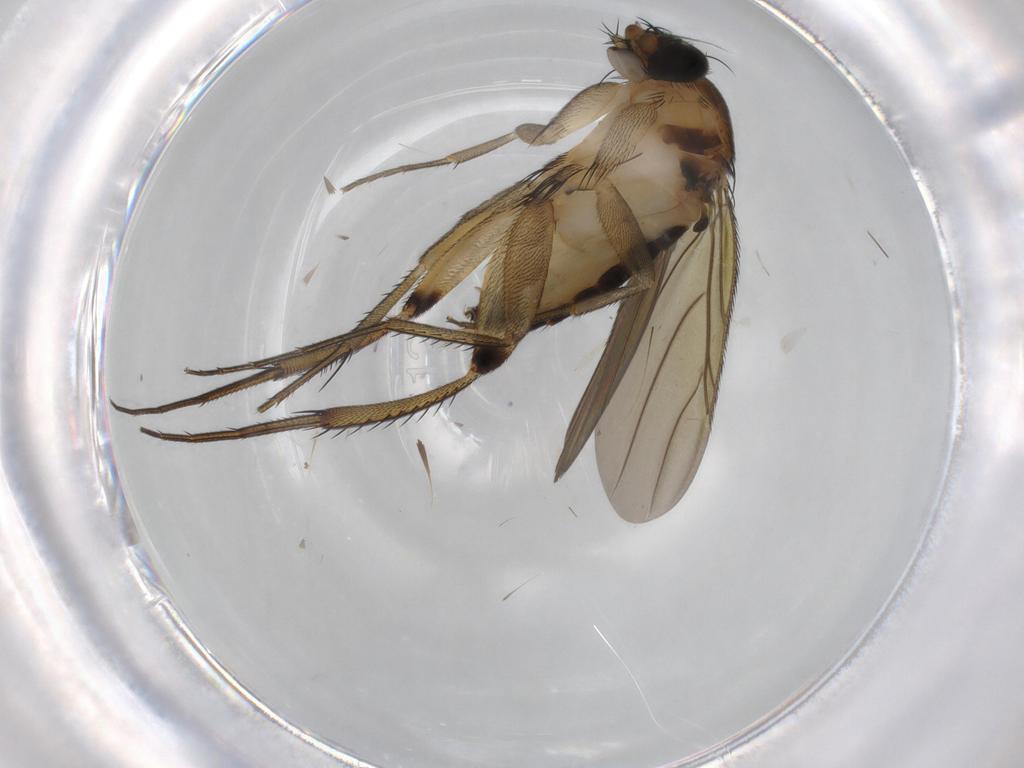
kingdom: Animalia
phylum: Arthropoda
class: Insecta
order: Diptera
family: Phoridae
